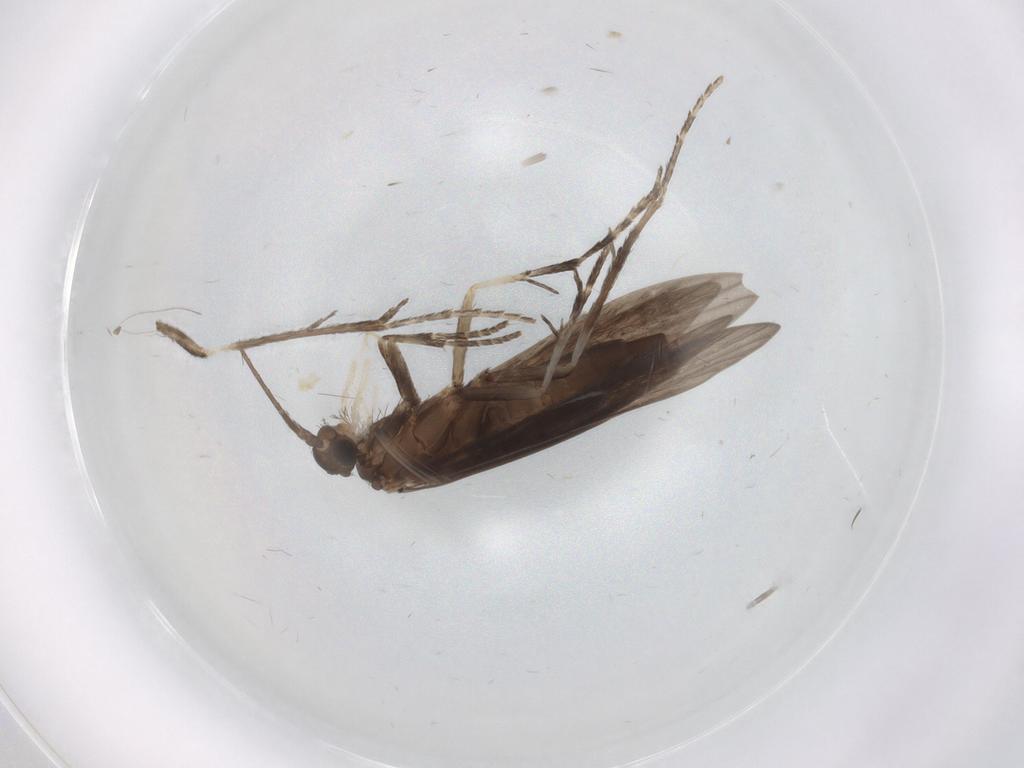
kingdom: Animalia
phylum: Arthropoda
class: Insecta
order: Trichoptera
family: Xiphocentronidae
